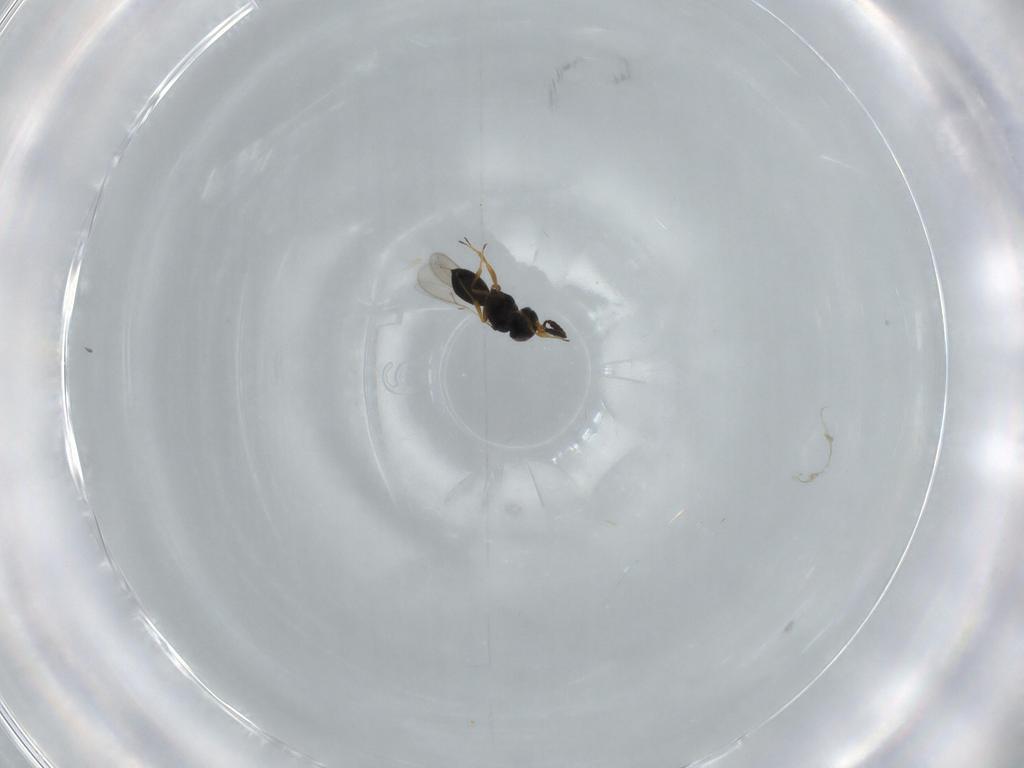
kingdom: Animalia
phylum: Arthropoda
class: Insecta
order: Hymenoptera
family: Scelionidae
